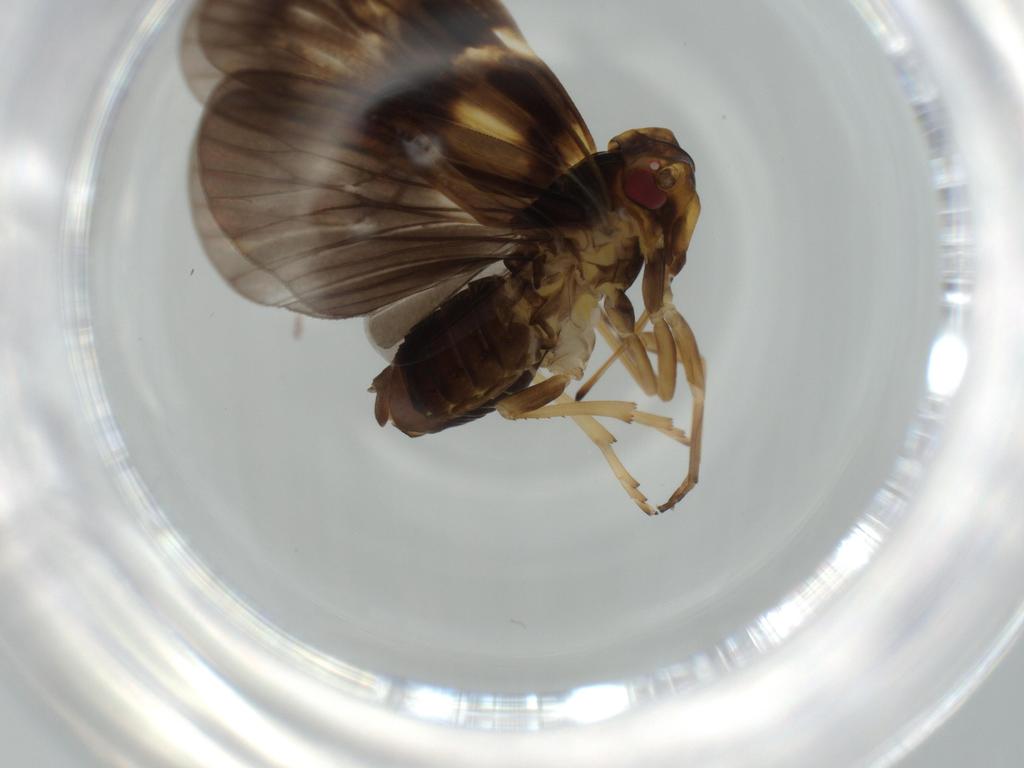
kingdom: Animalia
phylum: Arthropoda
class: Insecta
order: Hemiptera
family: Cixiidae
